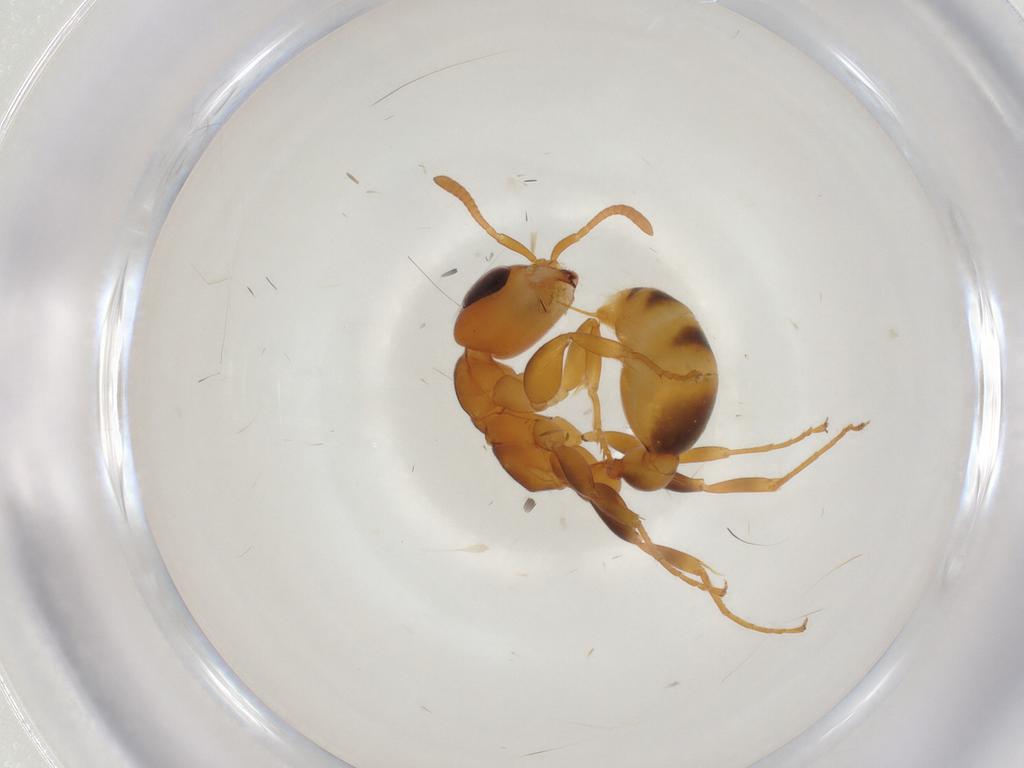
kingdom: Animalia
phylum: Arthropoda
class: Insecta
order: Hymenoptera
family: Formicidae
